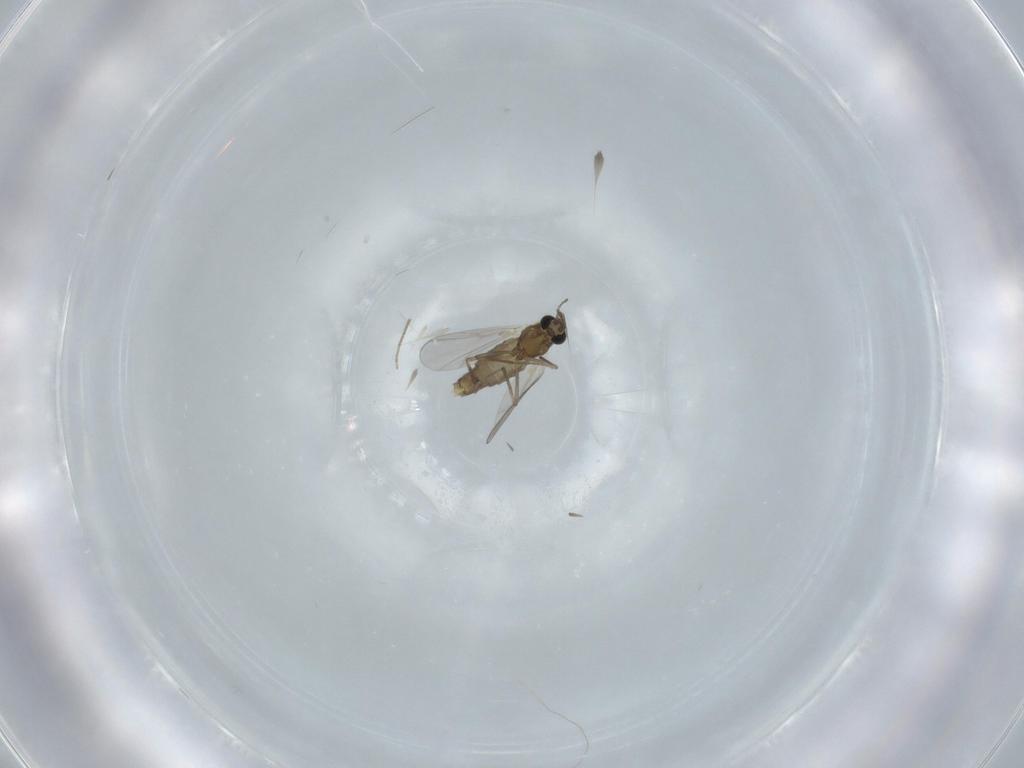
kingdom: Animalia
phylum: Arthropoda
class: Insecta
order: Diptera
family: Chironomidae
